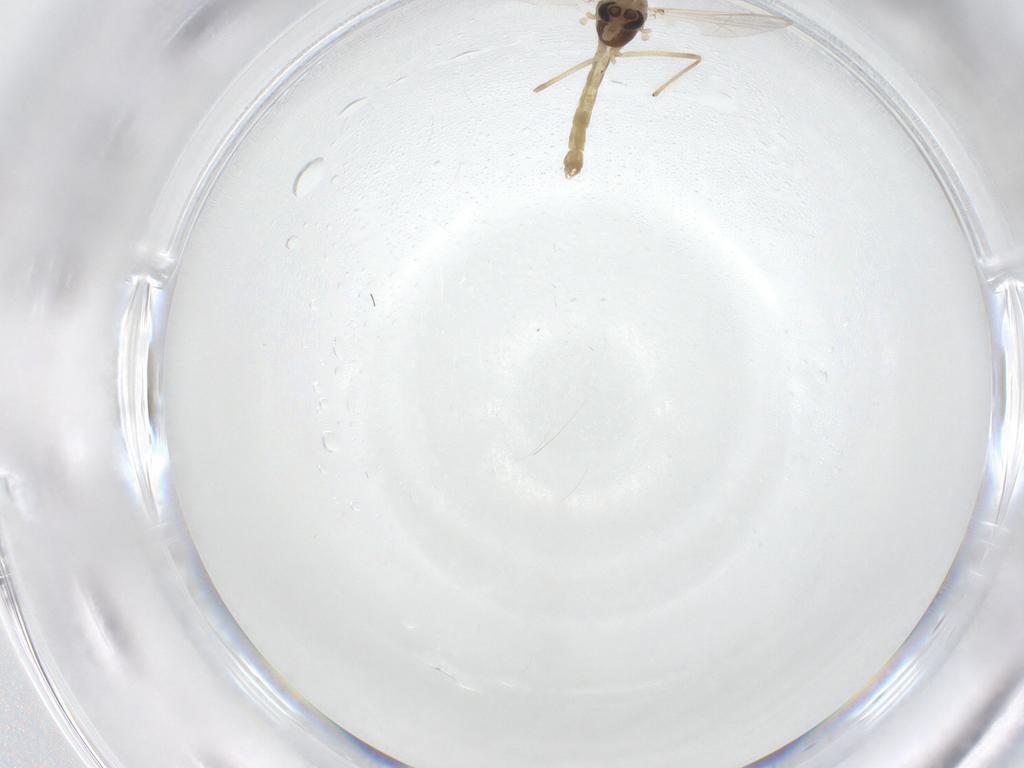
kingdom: Animalia
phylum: Arthropoda
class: Insecta
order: Diptera
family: Chironomidae
